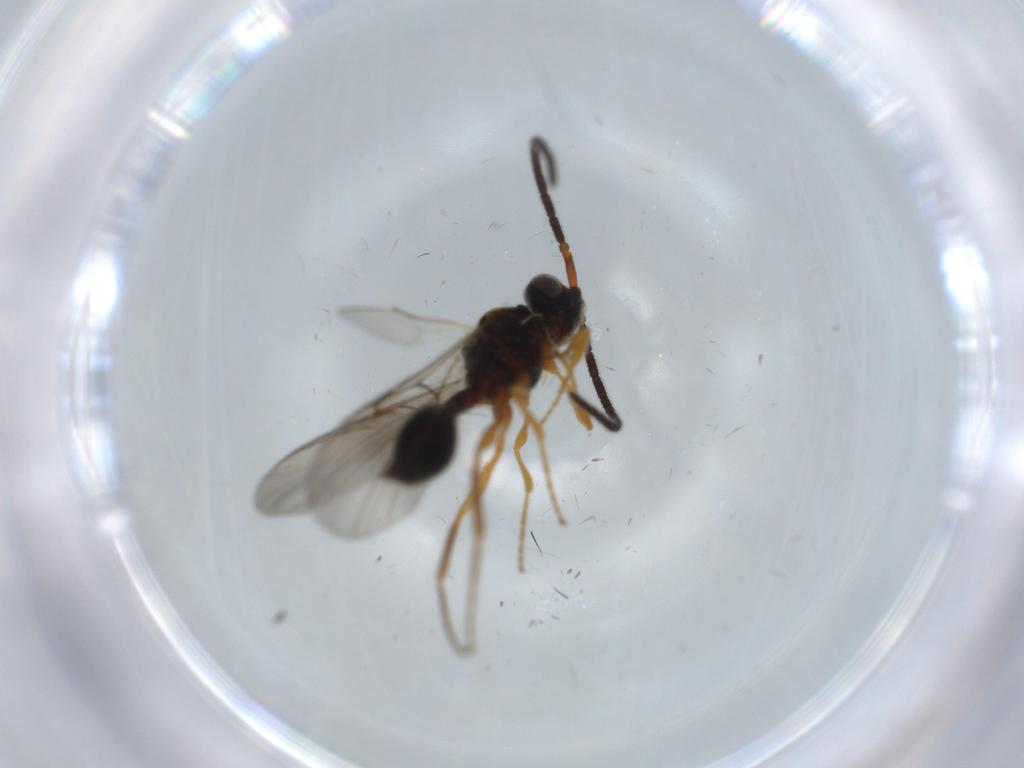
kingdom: Animalia
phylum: Arthropoda
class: Insecta
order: Hymenoptera
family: Diapriidae
